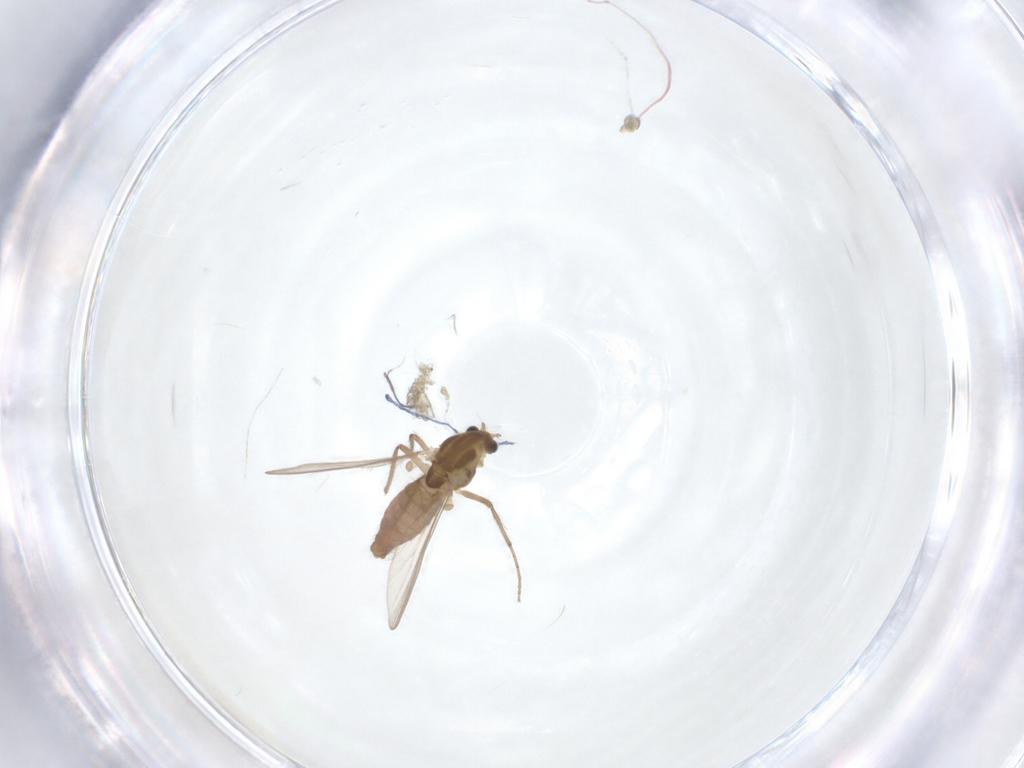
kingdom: Animalia
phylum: Arthropoda
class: Insecta
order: Diptera
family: Chironomidae
